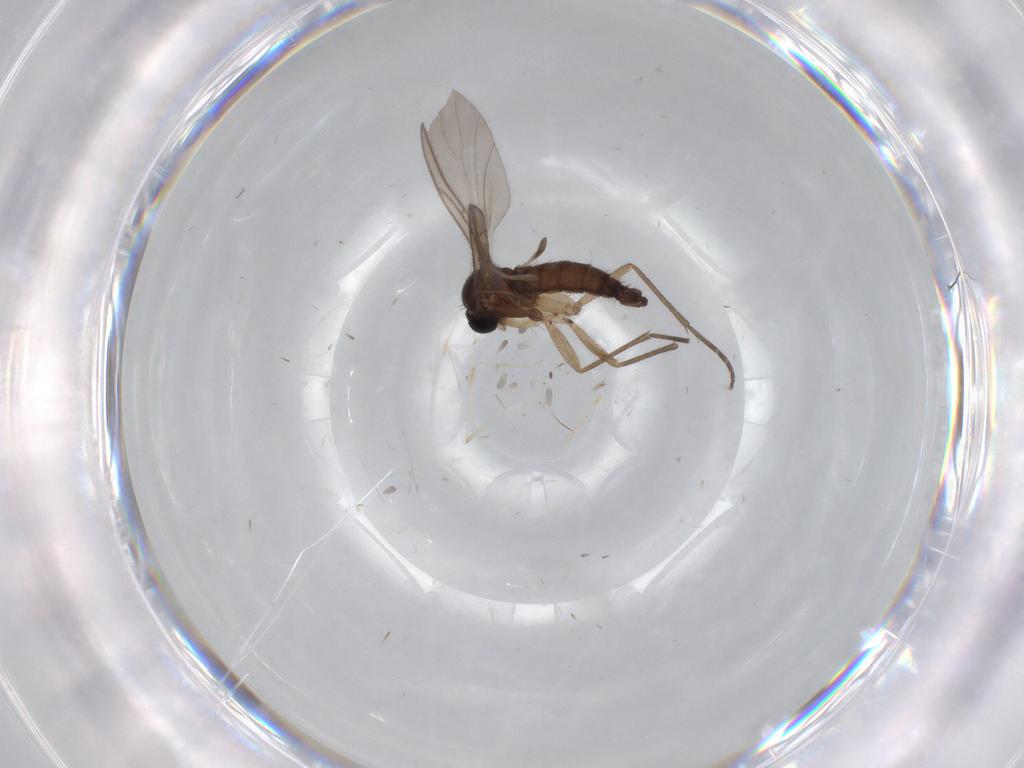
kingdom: Animalia
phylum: Arthropoda
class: Insecta
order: Diptera
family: Sciaridae
